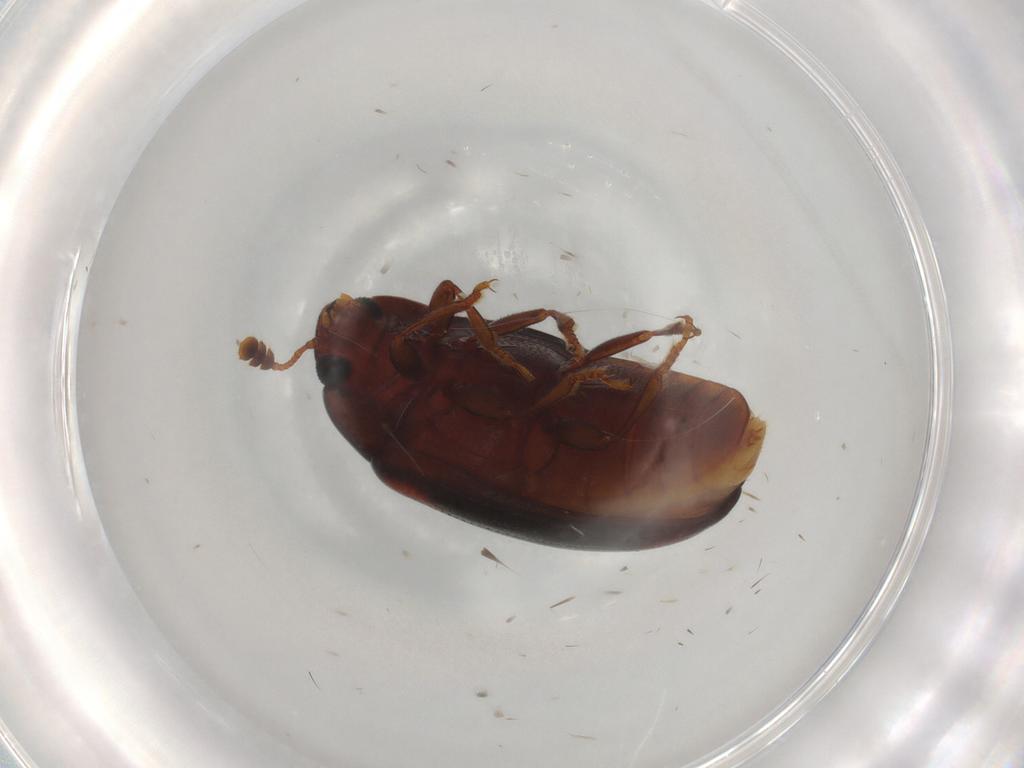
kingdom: Animalia
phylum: Arthropoda
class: Insecta
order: Coleoptera
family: Erotylidae
